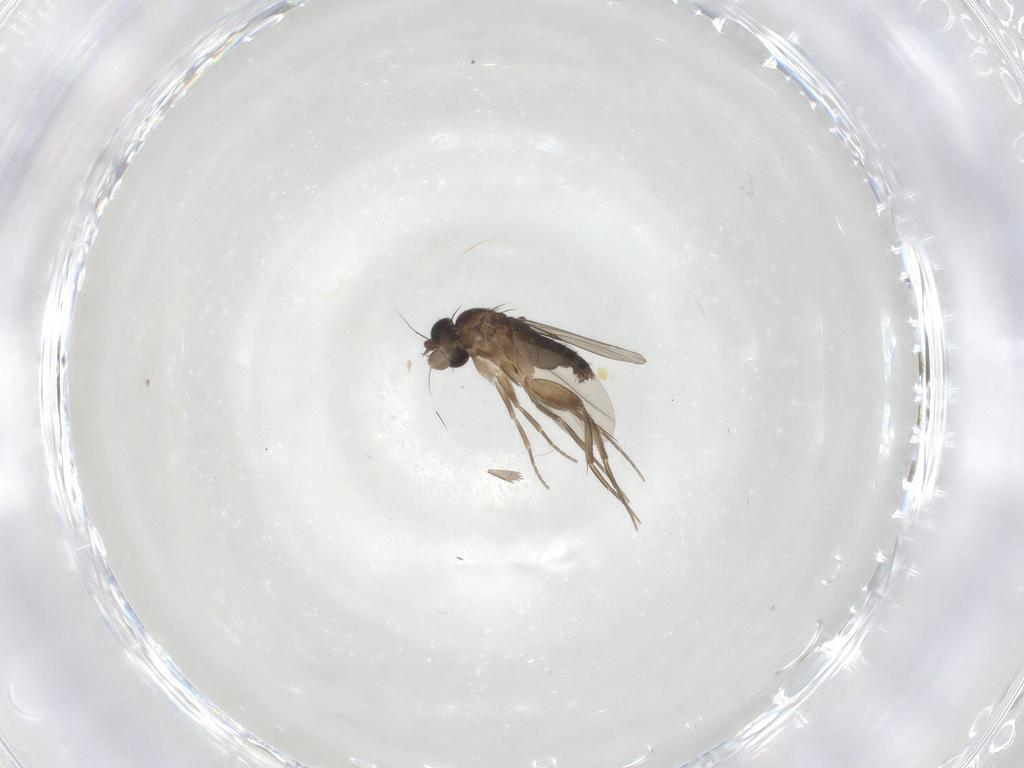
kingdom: Animalia
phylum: Arthropoda
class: Insecta
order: Diptera
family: Phoridae
